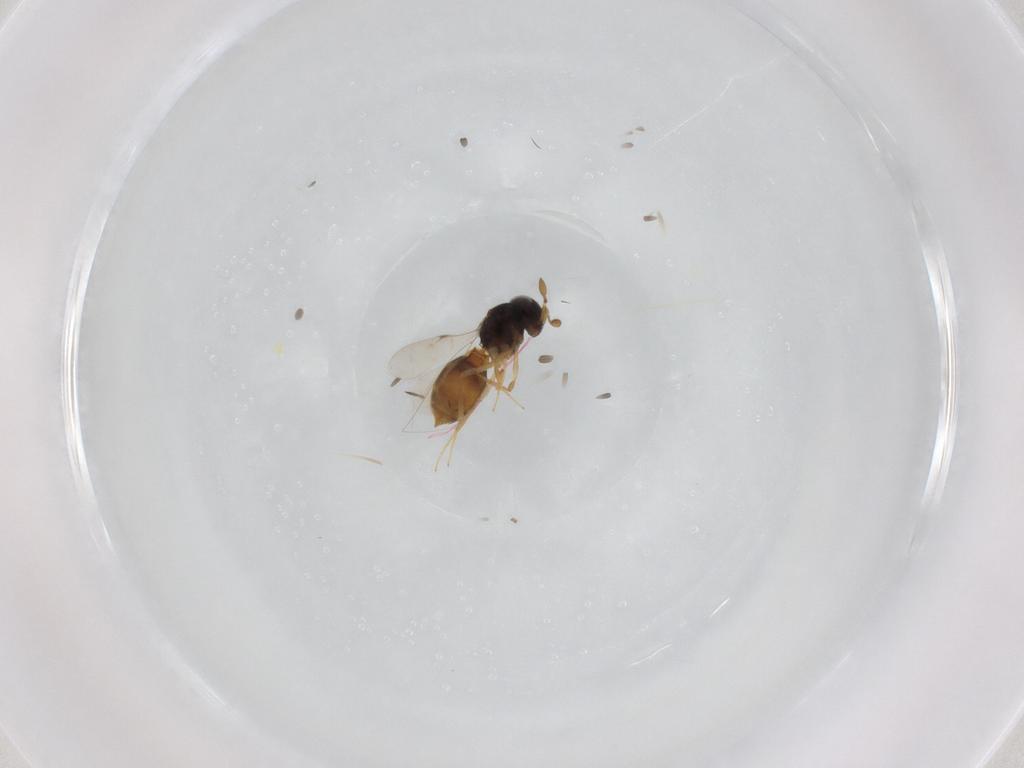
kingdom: Animalia
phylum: Arthropoda
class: Insecta
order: Hymenoptera
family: Scelionidae
